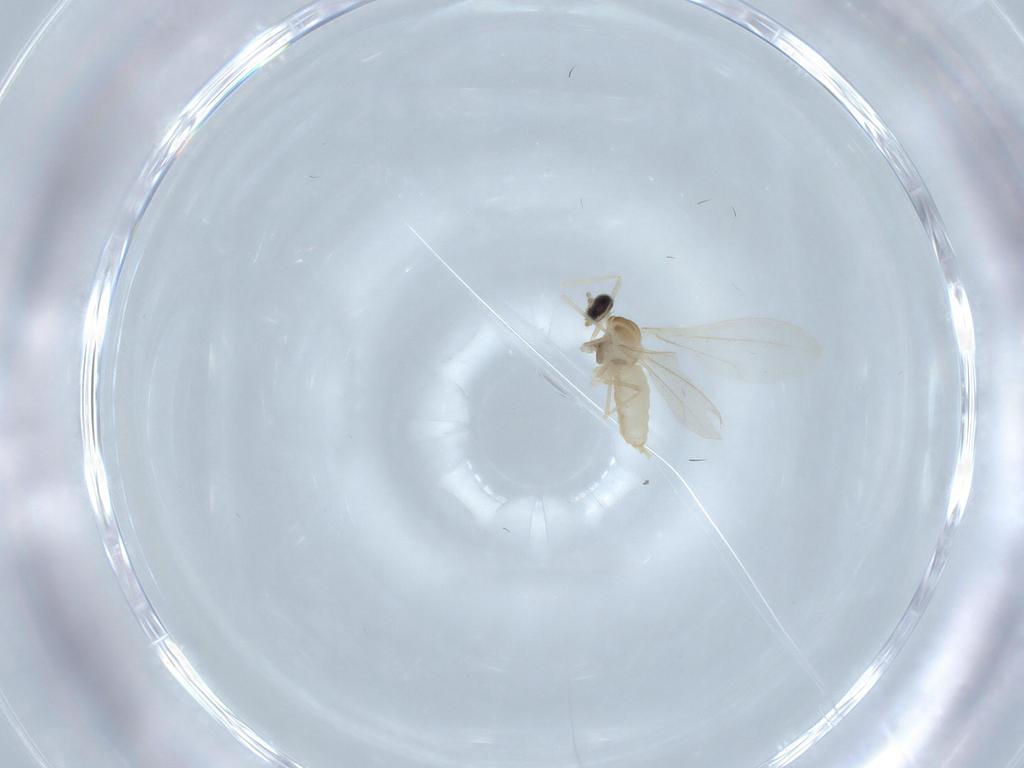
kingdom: Animalia
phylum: Arthropoda
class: Insecta
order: Diptera
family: Cecidomyiidae
